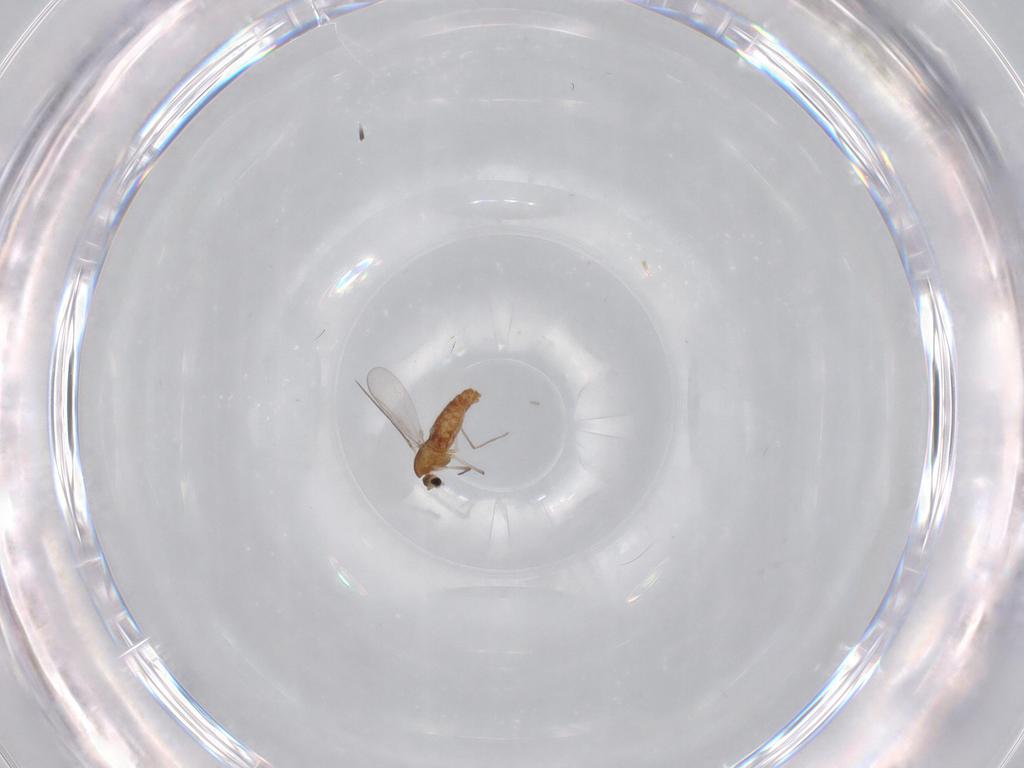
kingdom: Animalia
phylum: Arthropoda
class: Insecta
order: Diptera
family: Chironomidae
